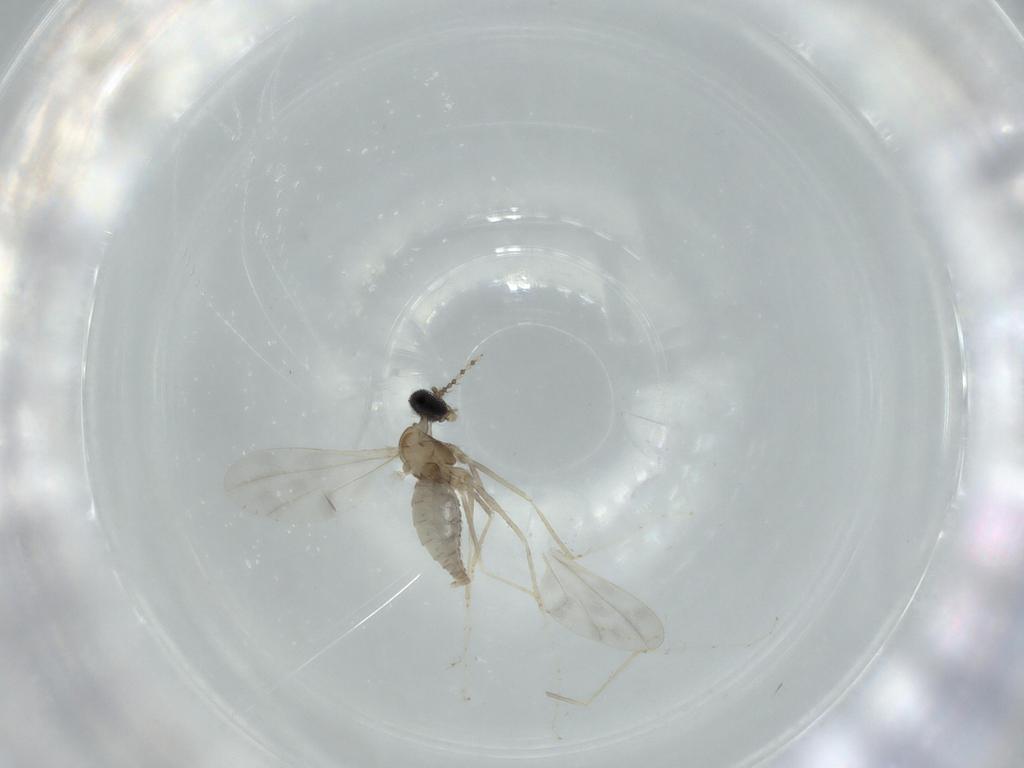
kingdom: Animalia
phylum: Arthropoda
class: Insecta
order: Diptera
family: Cecidomyiidae
